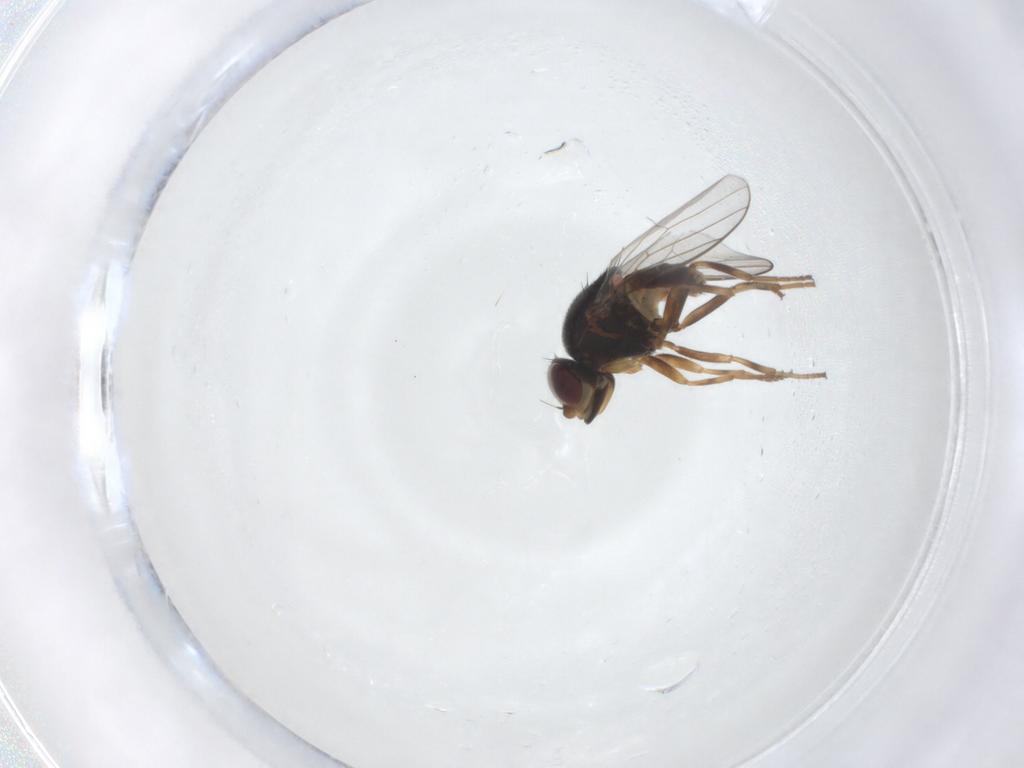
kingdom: Animalia
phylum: Arthropoda
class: Insecta
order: Diptera
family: Chloropidae
